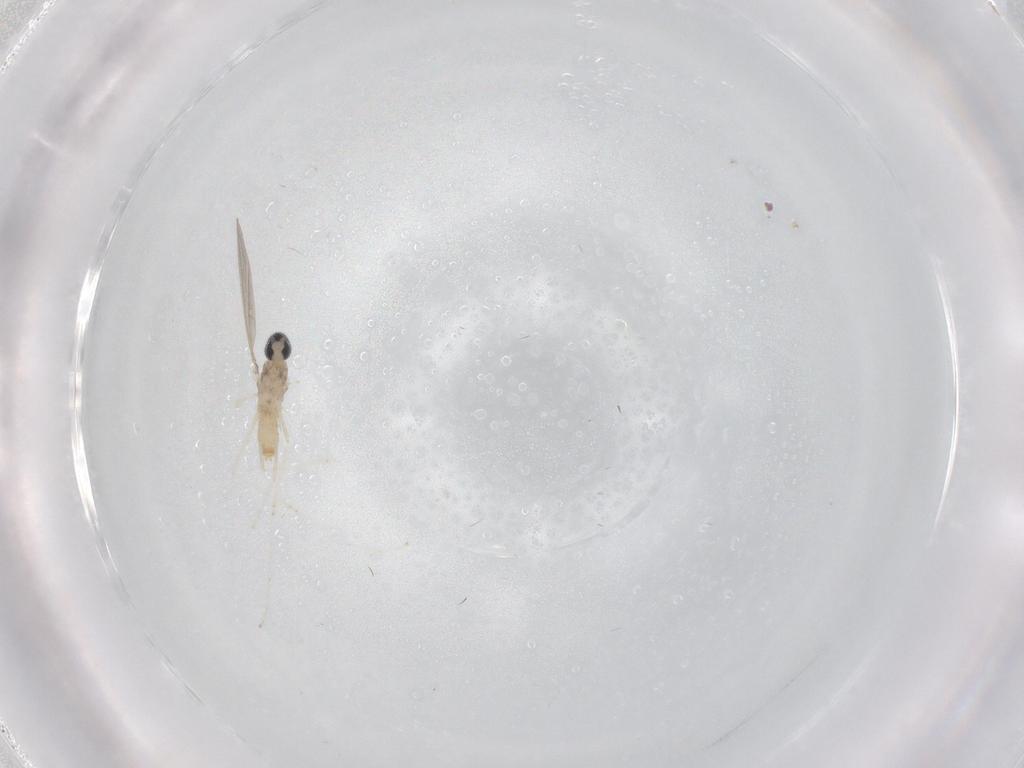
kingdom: Animalia
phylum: Arthropoda
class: Insecta
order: Diptera
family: Cecidomyiidae
